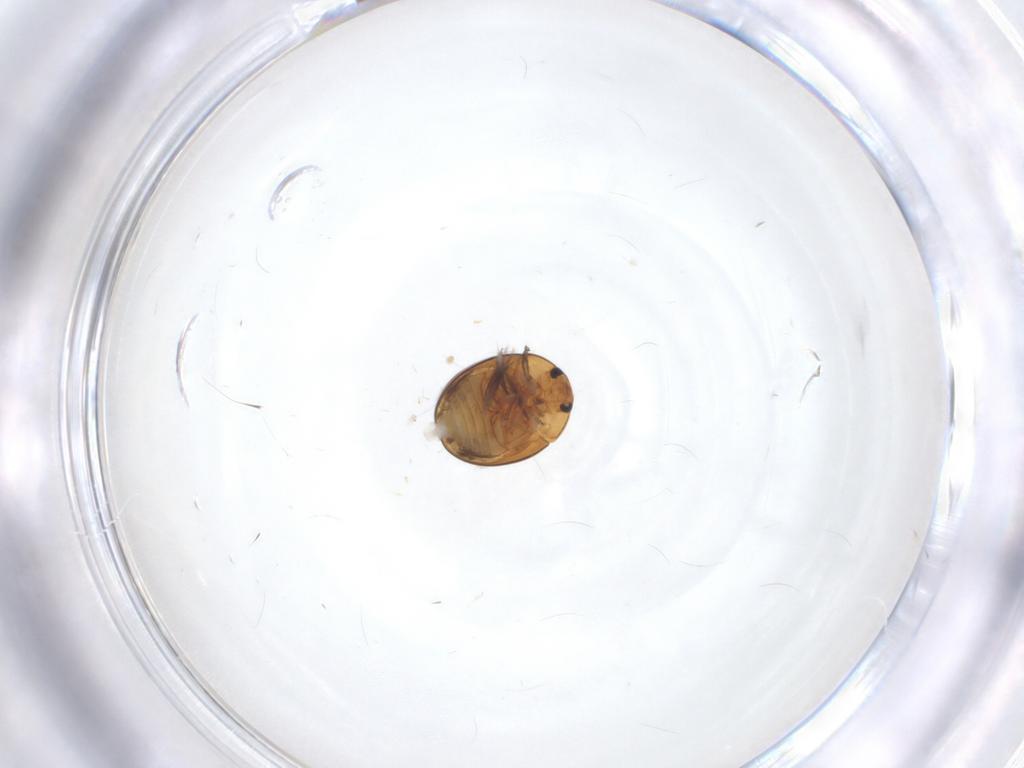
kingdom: Animalia
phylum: Arthropoda
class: Insecta
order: Coleoptera
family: Phalacridae
